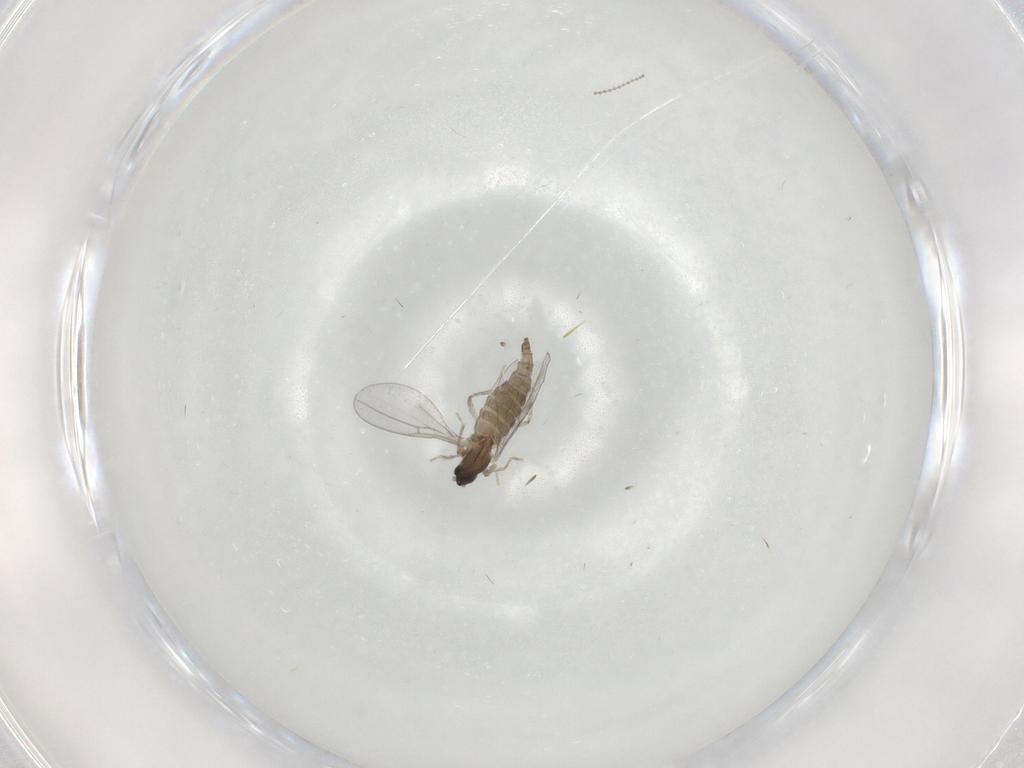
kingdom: Animalia
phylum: Arthropoda
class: Insecta
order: Diptera
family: Cecidomyiidae
